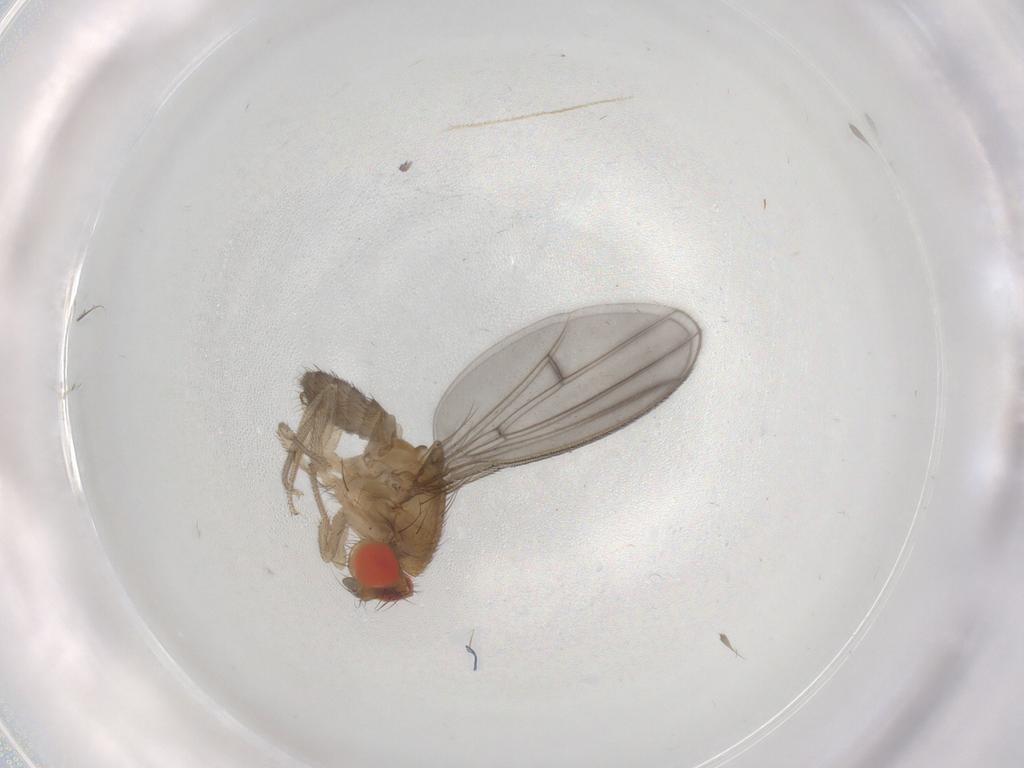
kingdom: Animalia
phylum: Arthropoda
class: Insecta
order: Diptera
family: Drosophilidae
